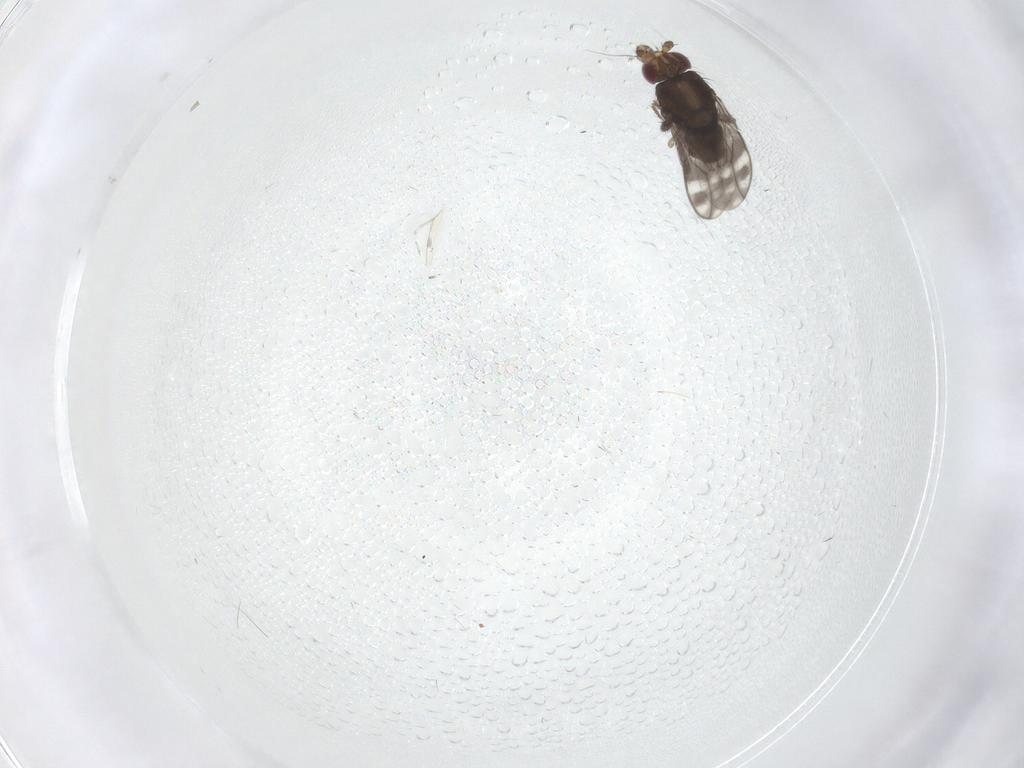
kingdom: Animalia
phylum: Arthropoda
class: Insecta
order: Diptera
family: Sphaeroceridae
